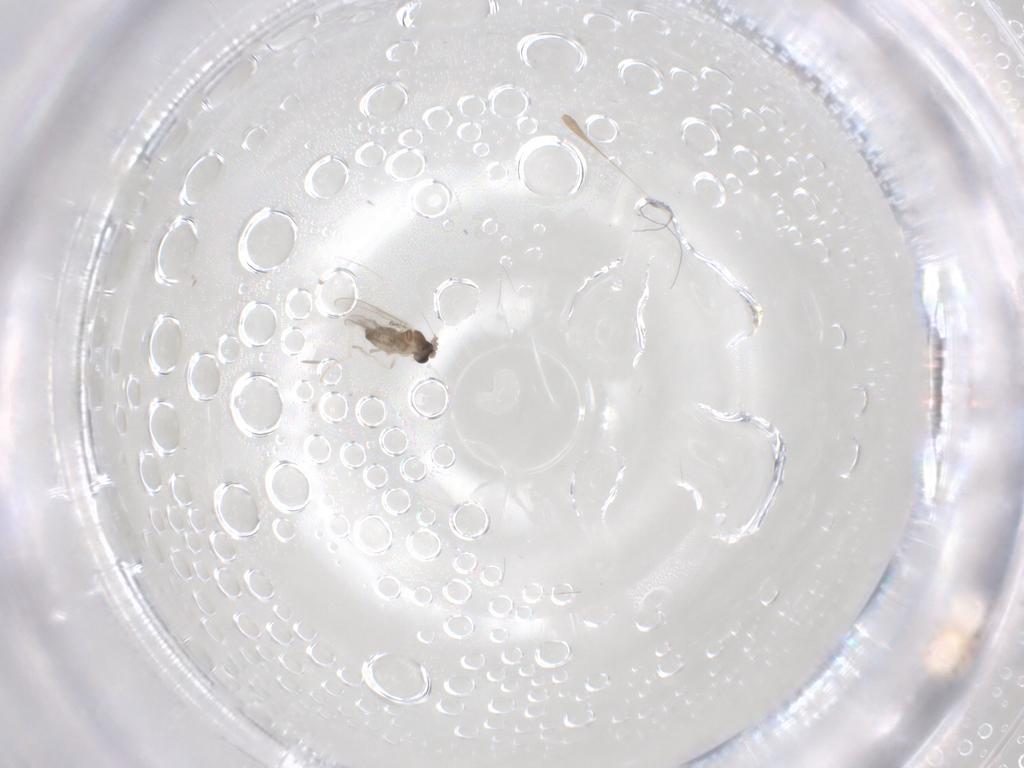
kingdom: Animalia
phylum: Arthropoda
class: Insecta
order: Diptera
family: Cecidomyiidae
